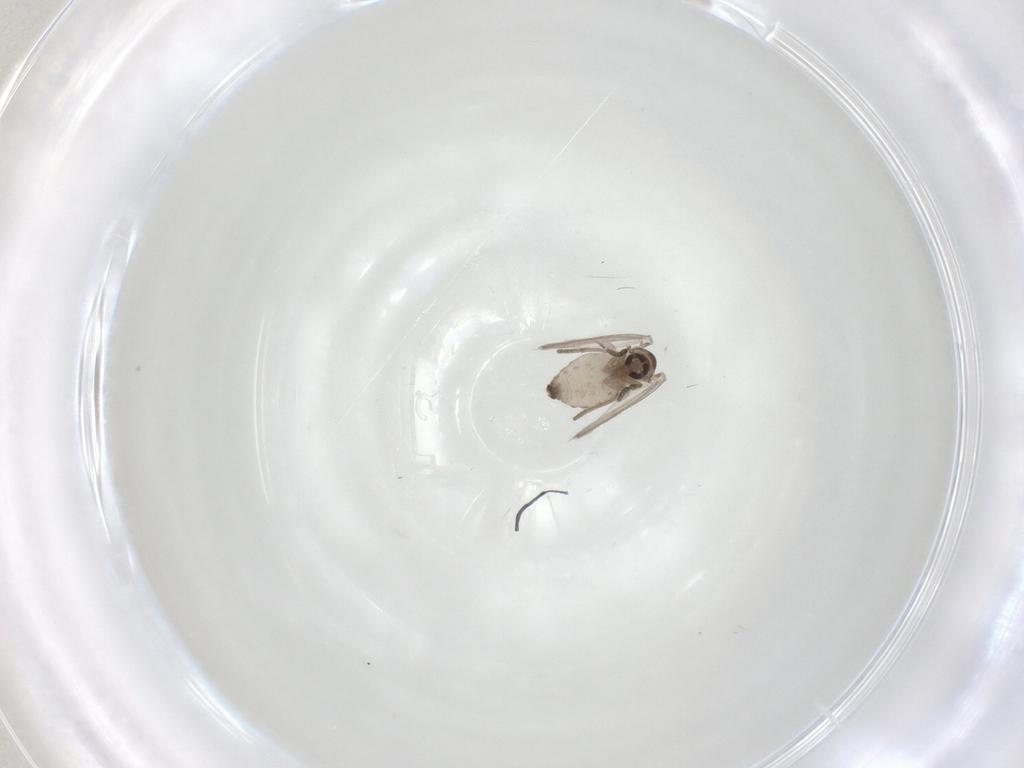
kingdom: Animalia
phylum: Arthropoda
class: Insecta
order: Diptera
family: Psychodidae
